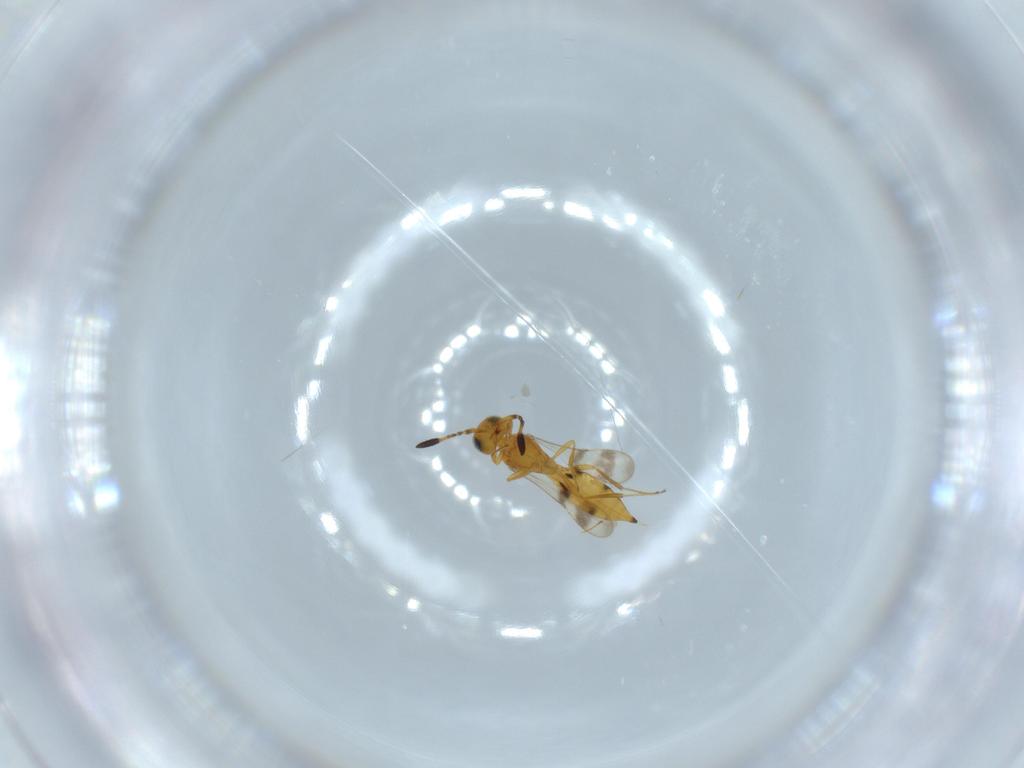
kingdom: Animalia
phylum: Arthropoda
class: Insecta
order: Hymenoptera
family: Scelionidae
